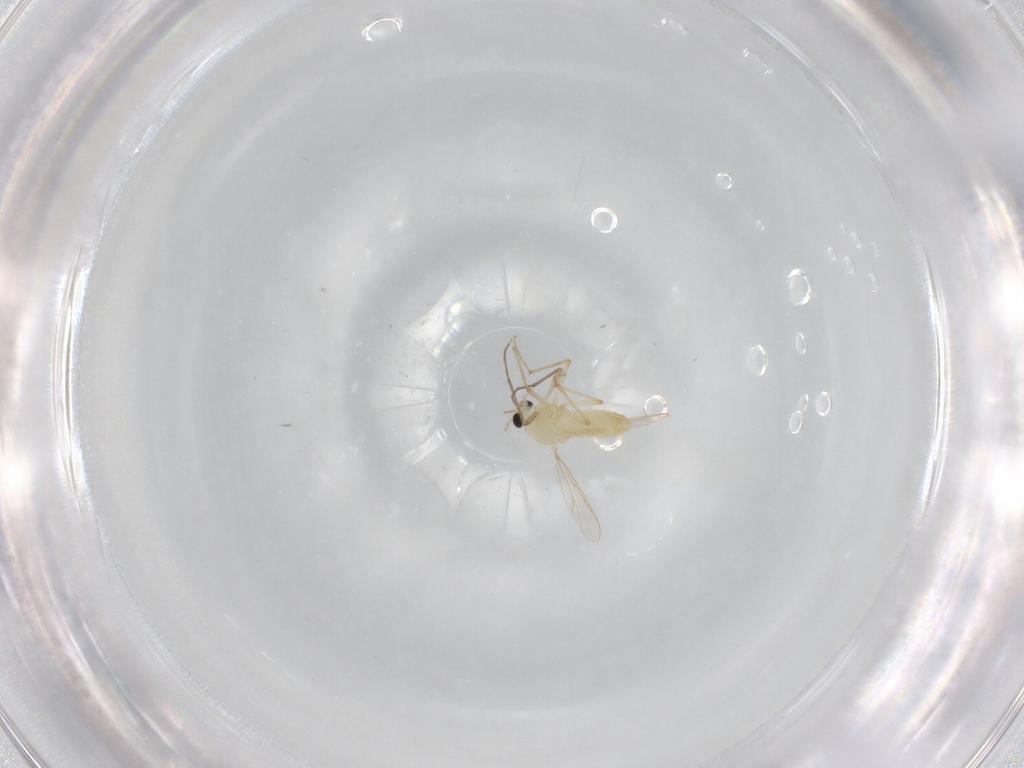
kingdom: Animalia
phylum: Arthropoda
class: Insecta
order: Diptera
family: Chironomidae
